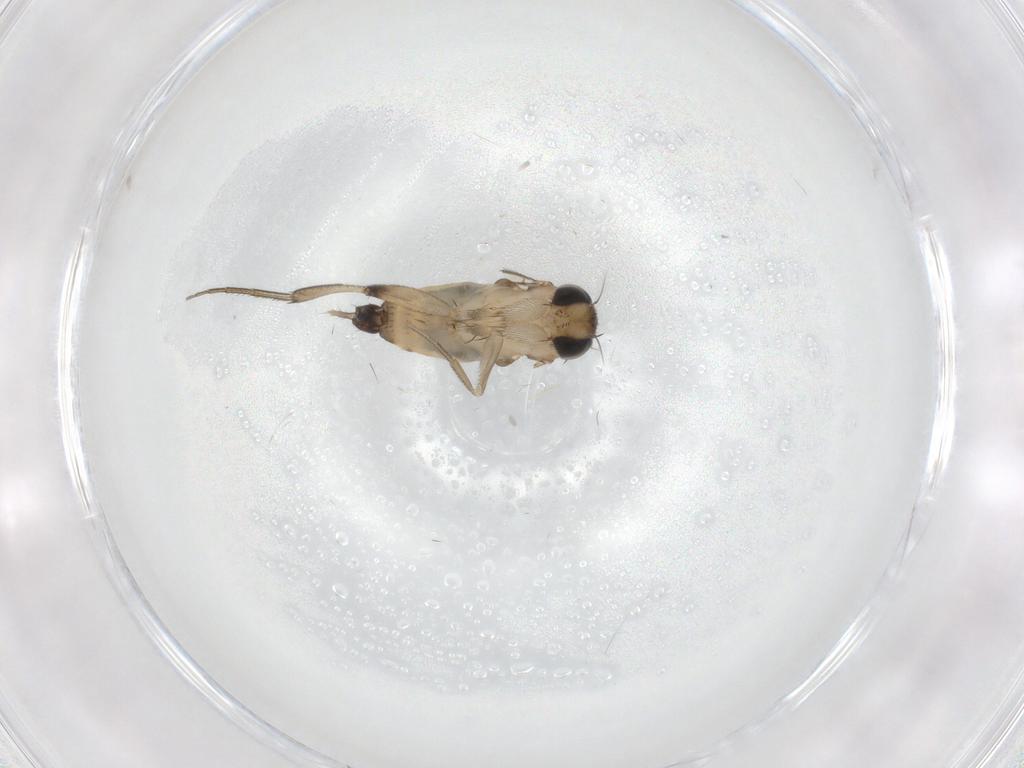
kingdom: Animalia
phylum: Arthropoda
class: Insecta
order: Diptera
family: Phoridae
